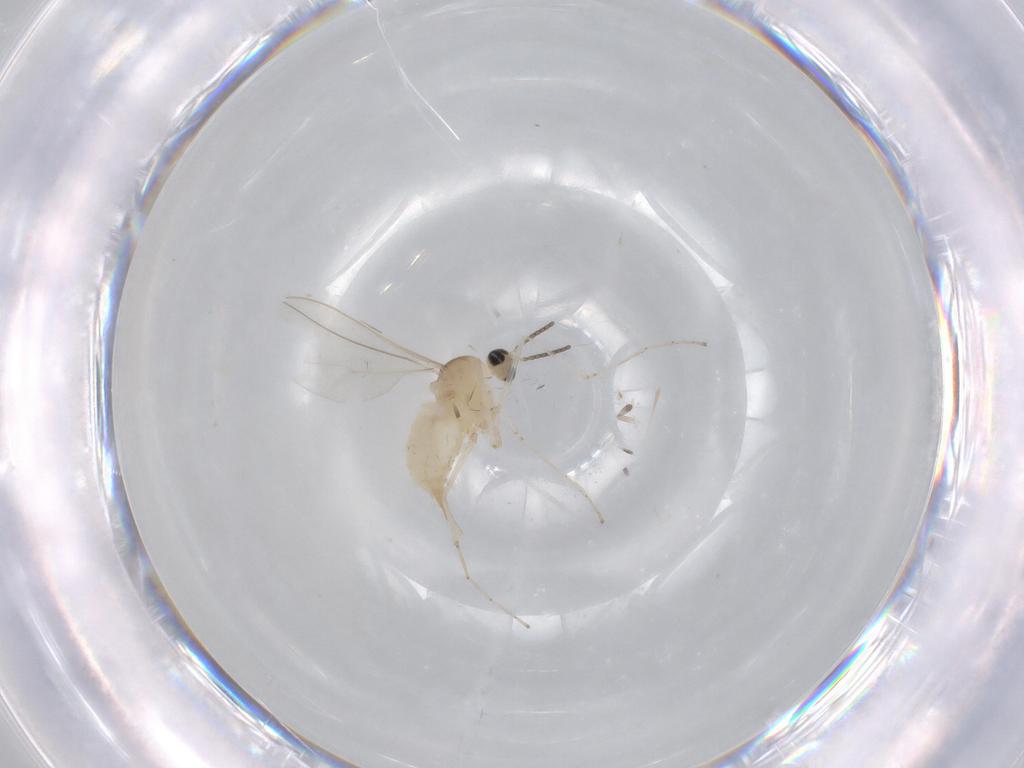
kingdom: Animalia
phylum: Arthropoda
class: Insecta
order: Diptera
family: Cecidomyiidae
